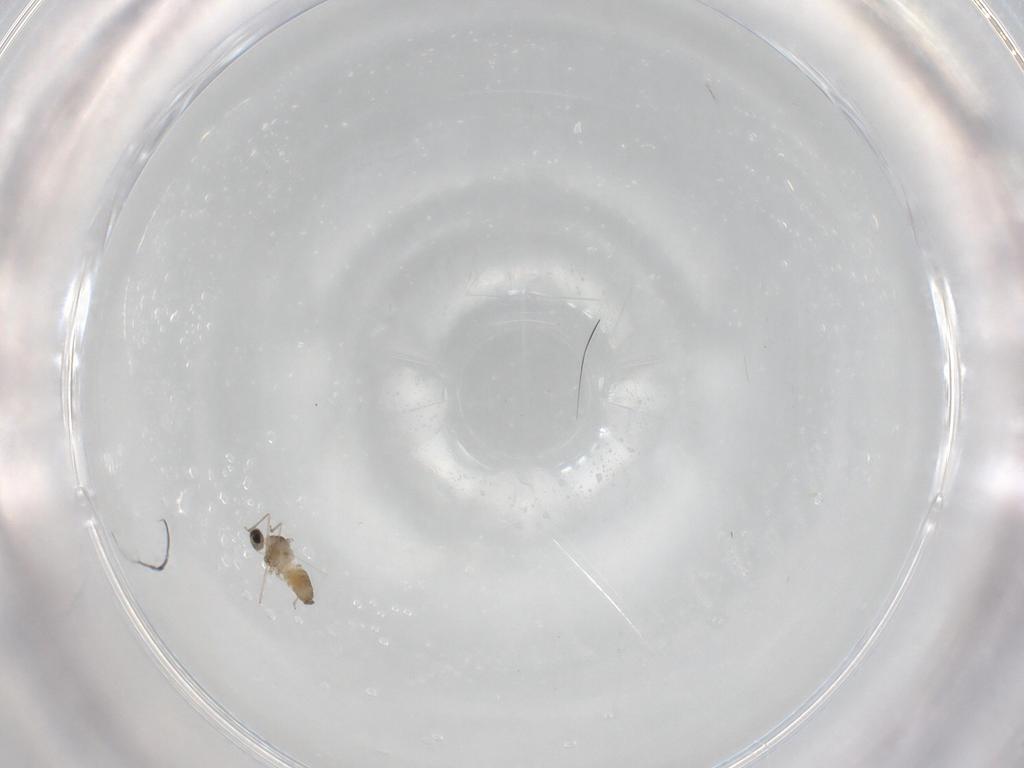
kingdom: Animalia
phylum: Arthropoda
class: Insecta
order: Diptera
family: Cecidomyiidae
